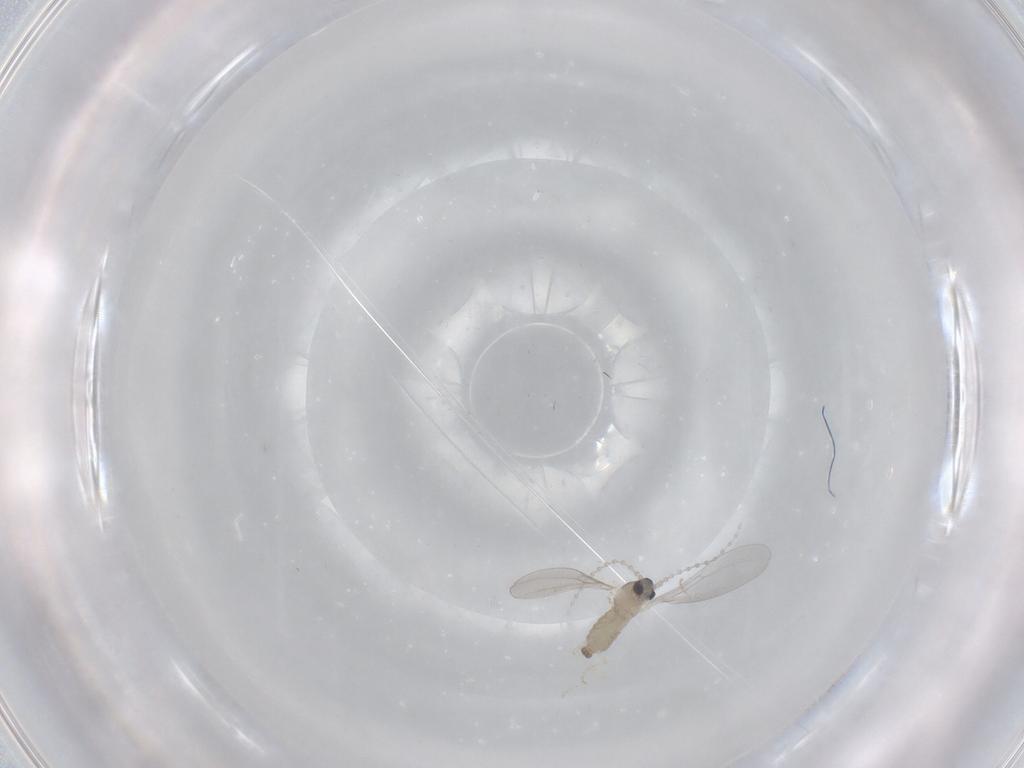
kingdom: Animalia
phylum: Arthropoda
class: Insecta
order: Diptera
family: Cecidomyiidae
